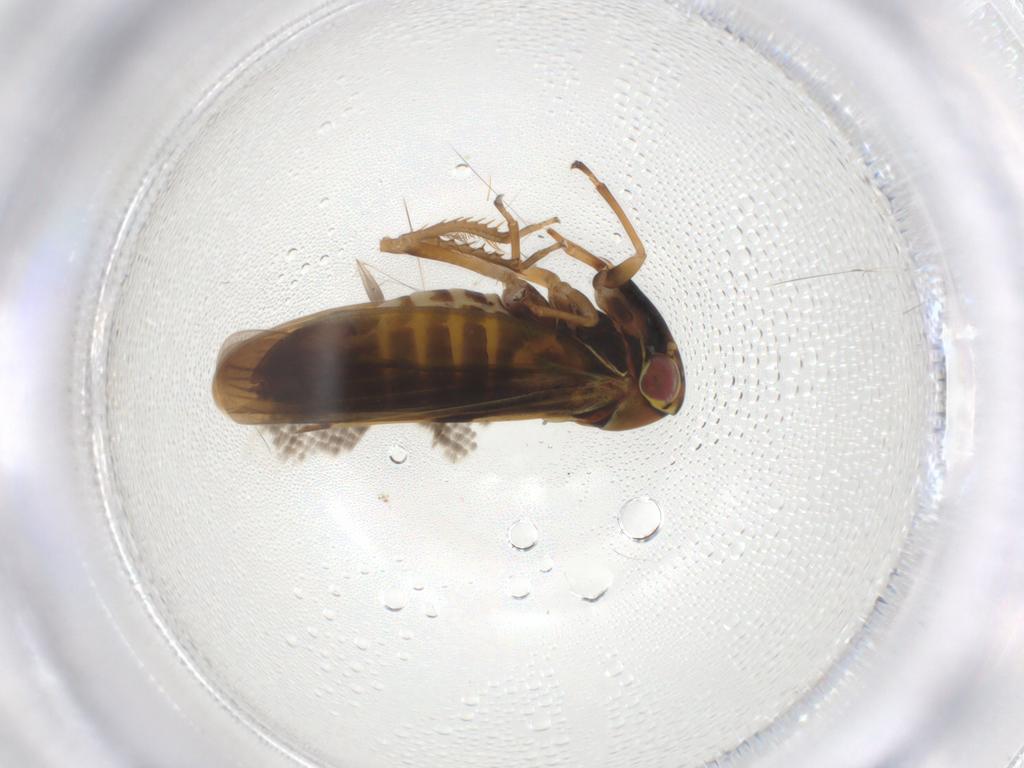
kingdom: Animalia
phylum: Arthropoda
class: Insecta
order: Hemiptera
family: Cicadellidae
